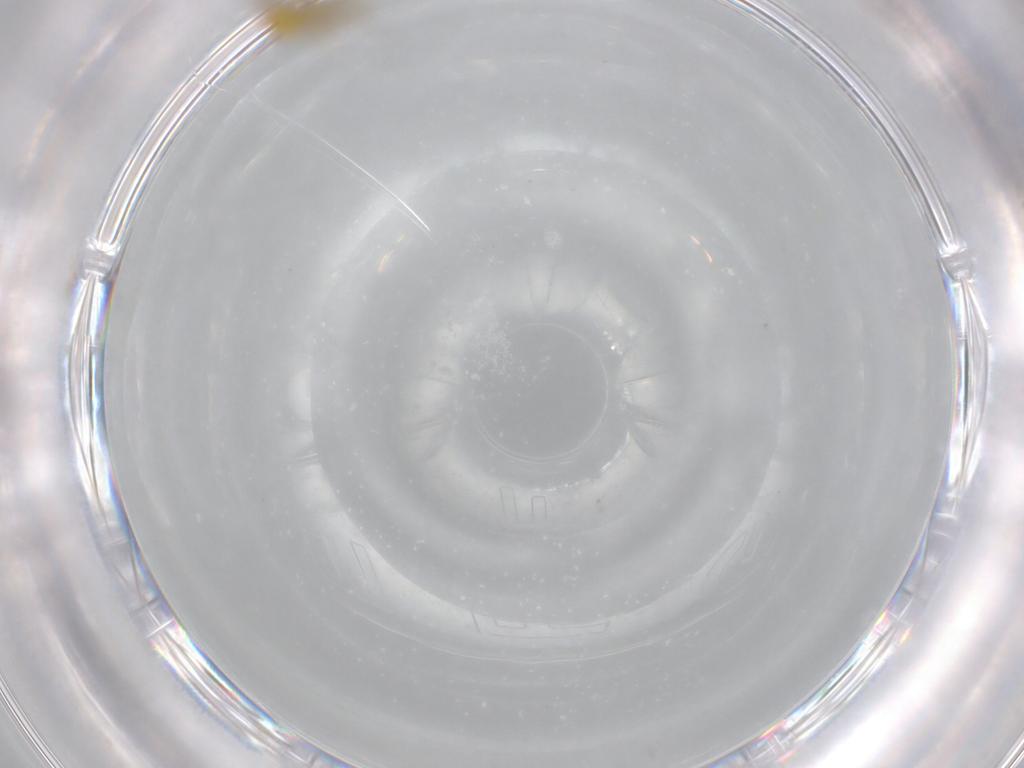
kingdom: Animalia
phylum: Arthropoda
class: Insecta
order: Diptera
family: Ceratopogonidae
